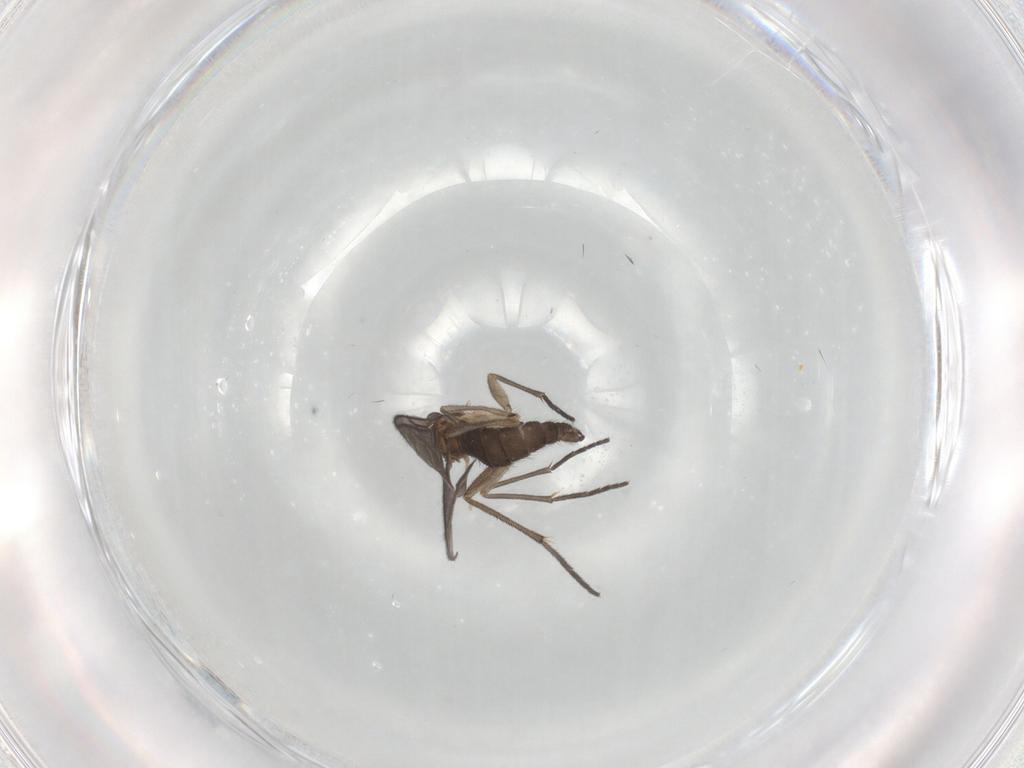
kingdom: Animalia
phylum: Arthropoda
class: Insecta
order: Diptera
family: Sciaridae
